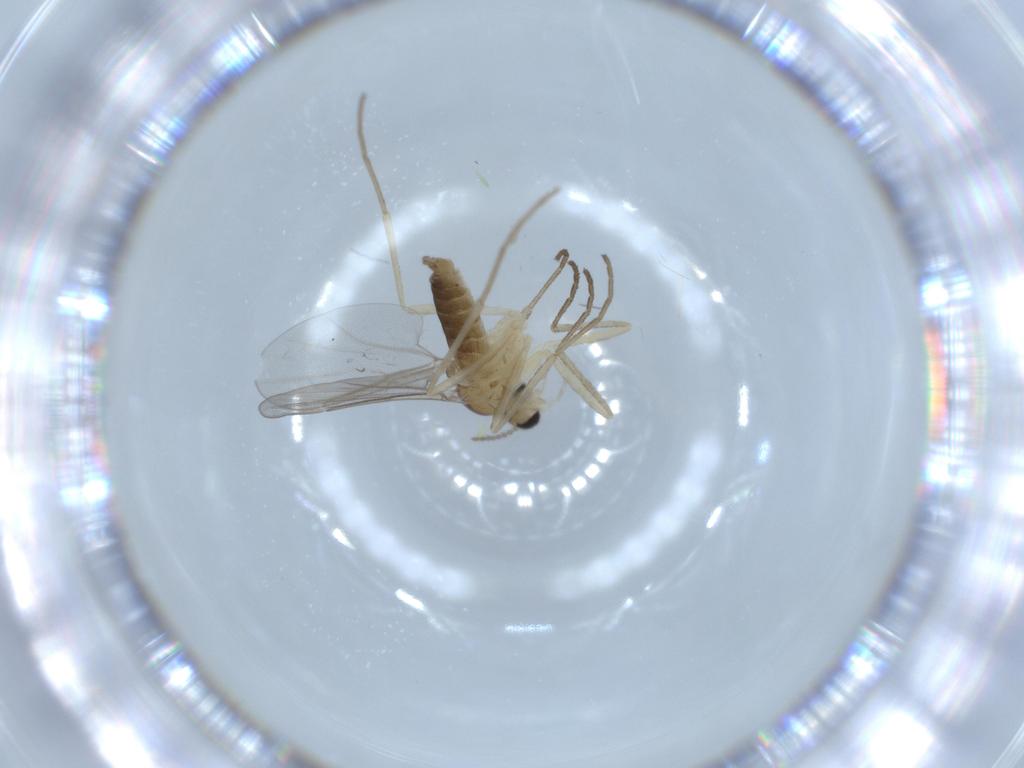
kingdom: Animalia
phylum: Arthropoda
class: Insecta
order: Diptera
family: Cecidomyiidae
